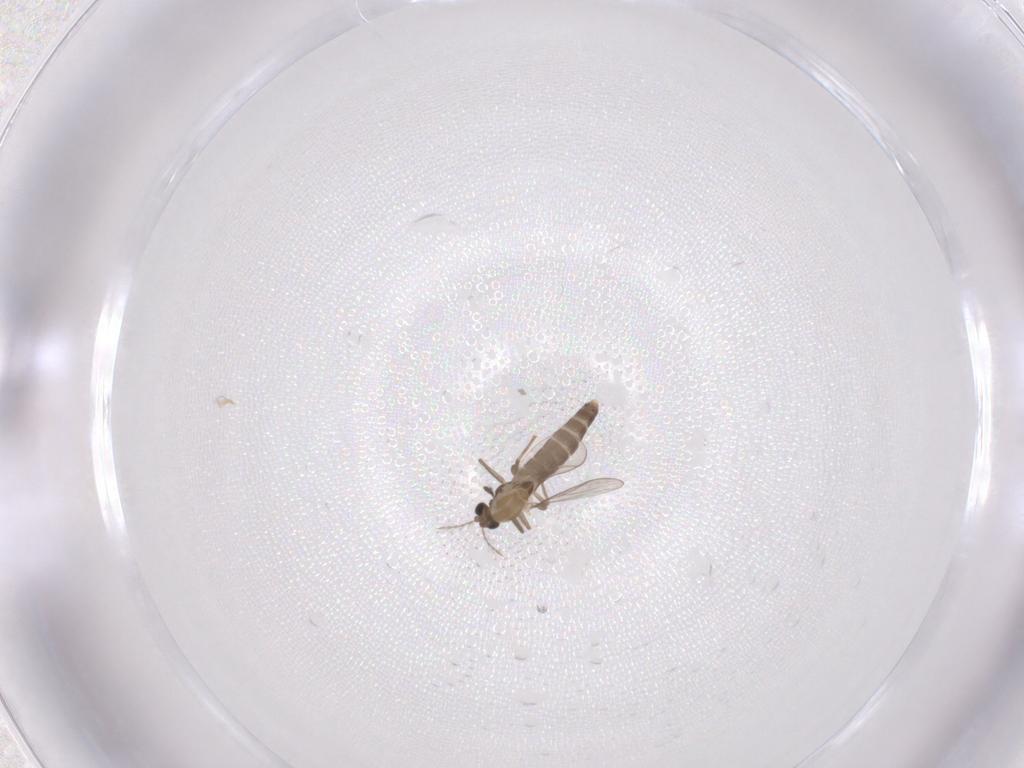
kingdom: Animalia
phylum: Arthropoda
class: Insecta
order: Diptera
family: Chironomidae
